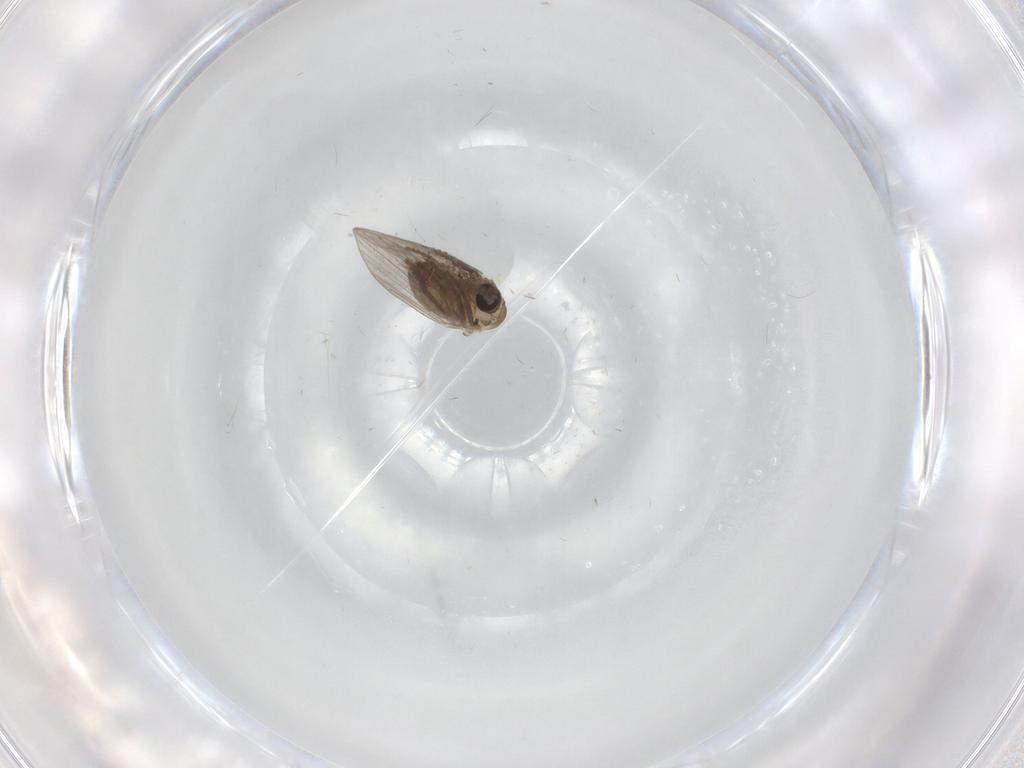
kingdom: Animalia
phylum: Arthropoda
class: Insecta
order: Diptera
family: Psychodidae
